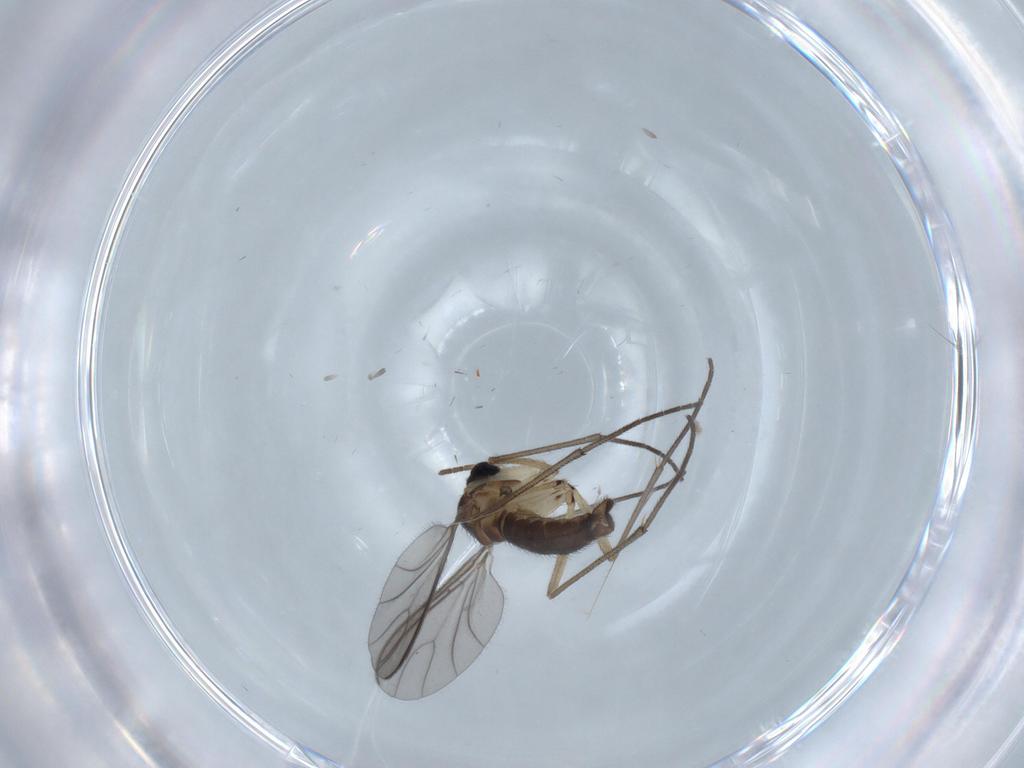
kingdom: Animalia
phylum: Arthropoda
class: Insecta
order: Diptera
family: Sciaridae
